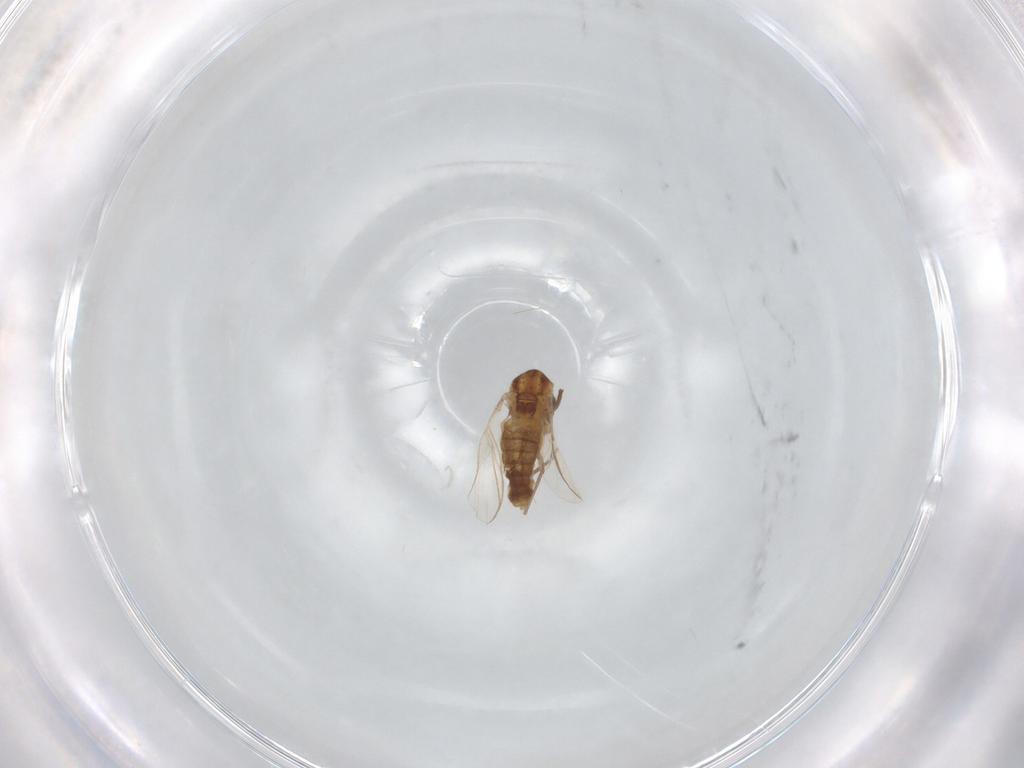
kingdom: Animalia
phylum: Arthropoda
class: Insecta
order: Diptera
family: Chironomidae
